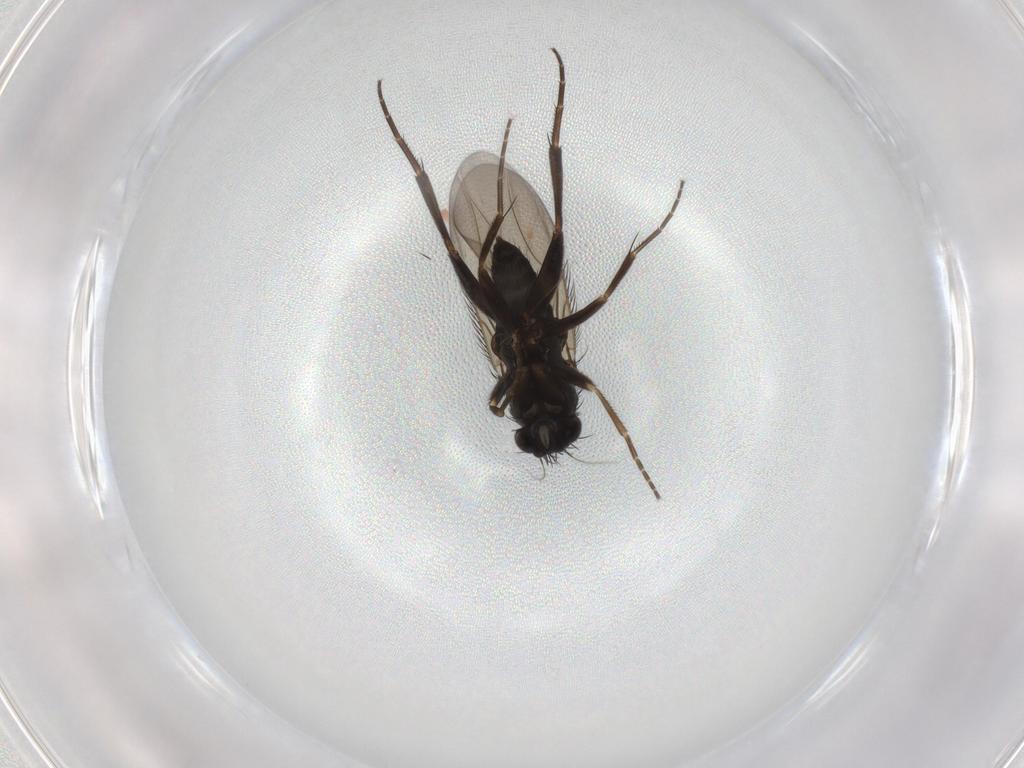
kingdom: Animalia
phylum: Arthropoda
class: Insecta
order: Diptera
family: Phoridae
